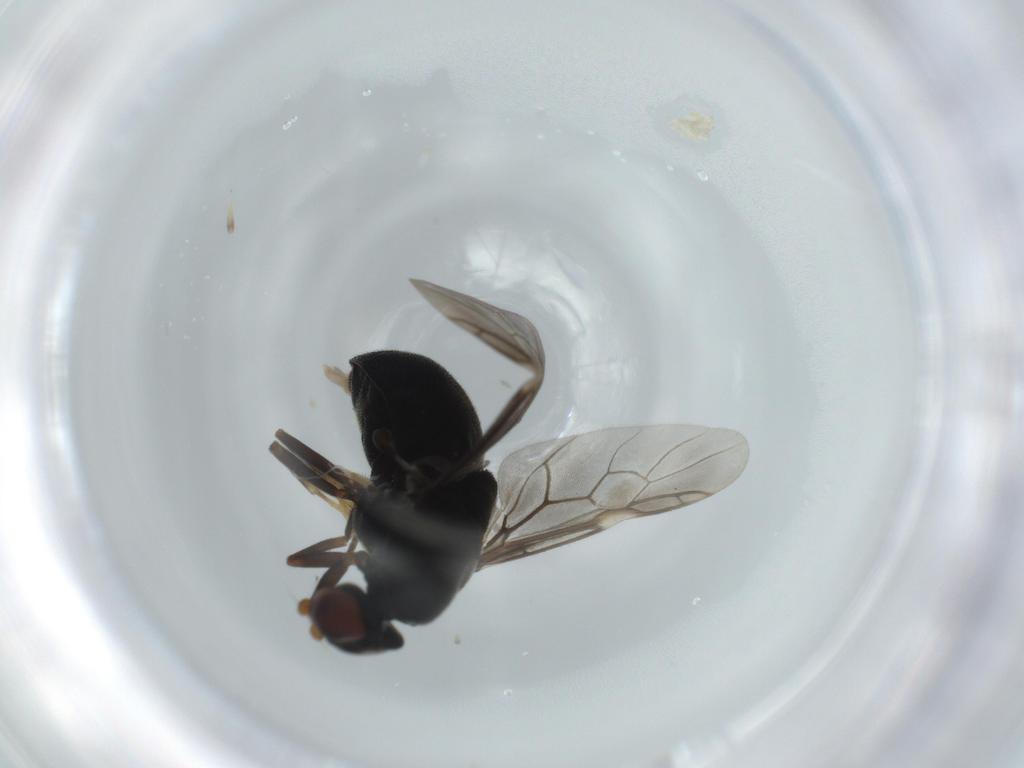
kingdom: Animalia
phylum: Arthropoda
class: Insecta
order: Diptera
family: Stratiomyidae
